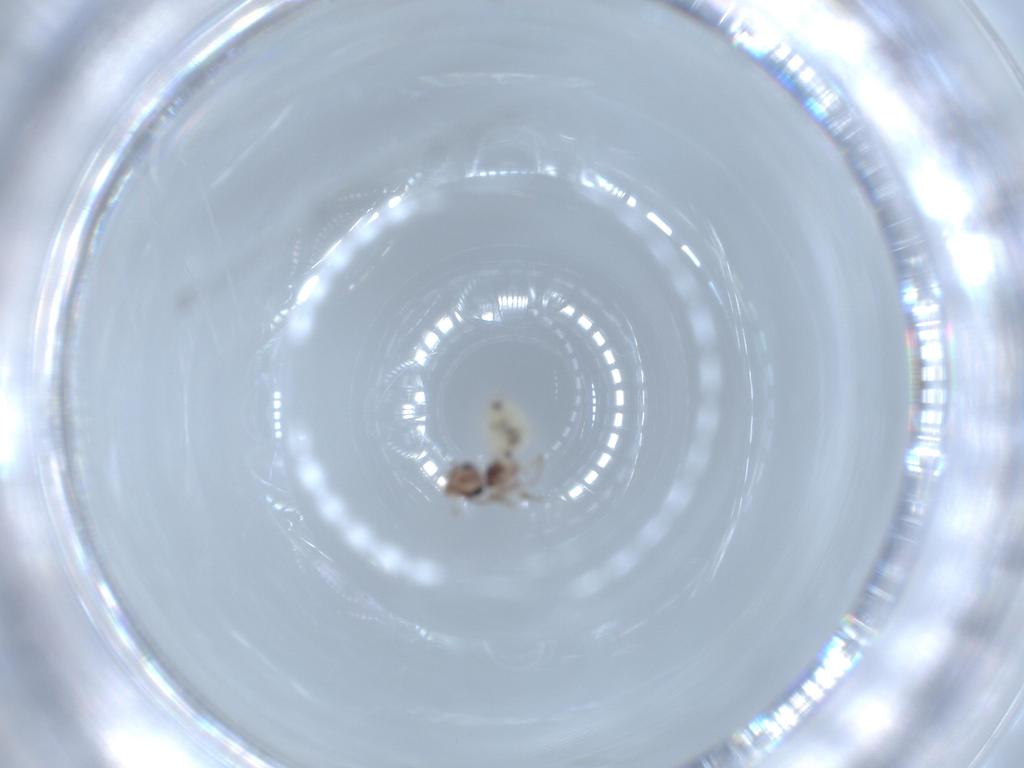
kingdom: Animalia
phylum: Arthropoda
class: Insecta
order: Psocodea
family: Lepidopsocidae
